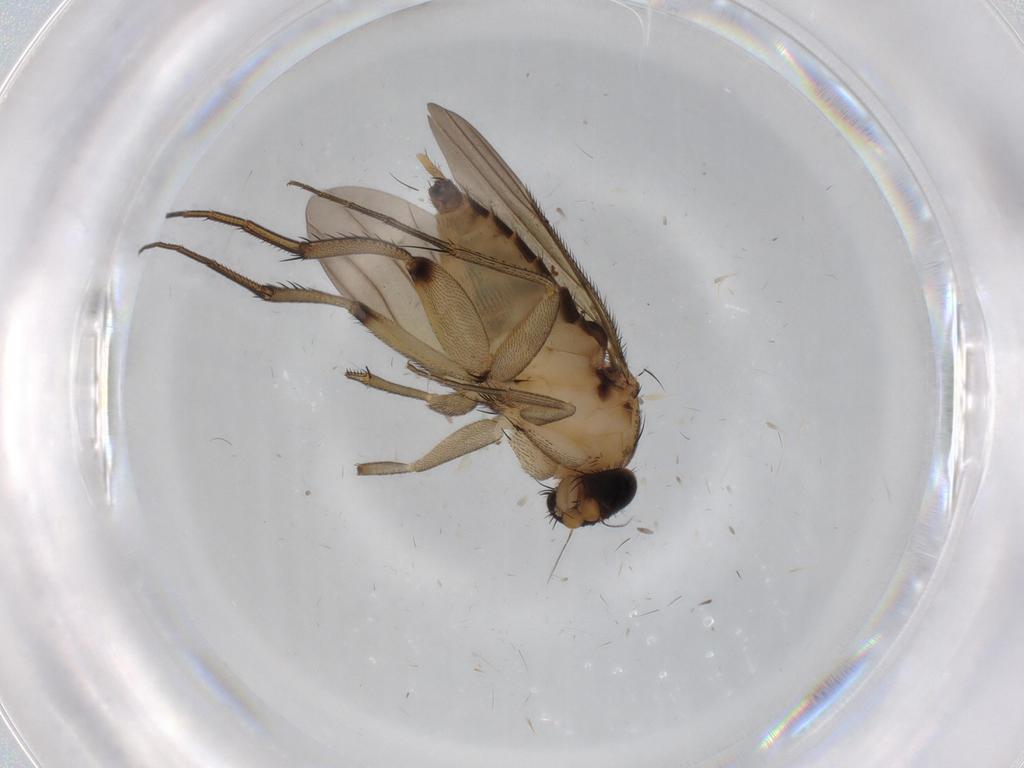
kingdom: Animalia
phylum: Arthropoda
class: Insecta
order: Diptera
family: Chironomidae
